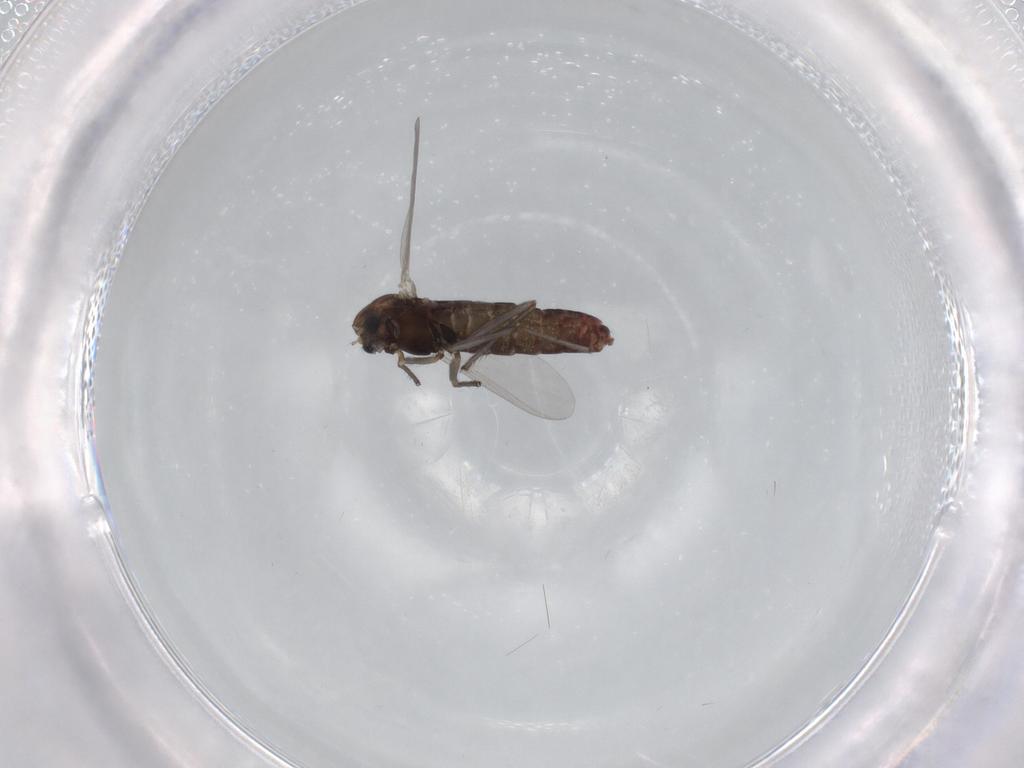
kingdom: Animalia
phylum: Arthropoda
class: Insecta
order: Diptera
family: Chironomidae
